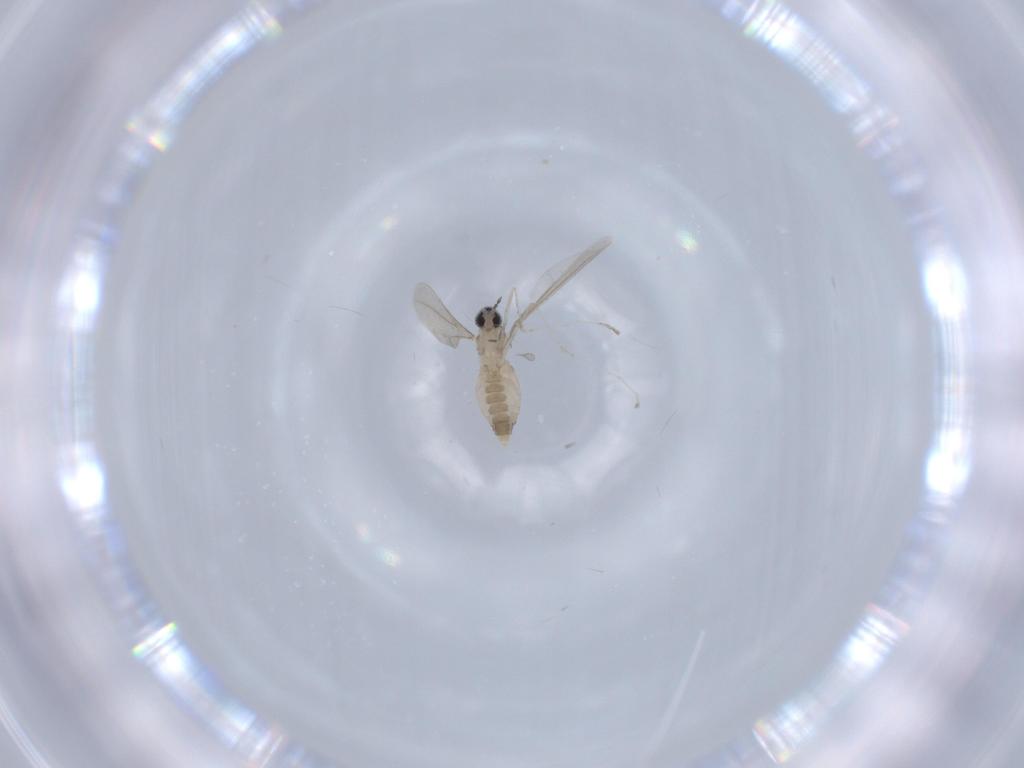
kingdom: Animalia
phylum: Arthropoda
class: Insecta
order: Diptera
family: Cecidomyiidae
